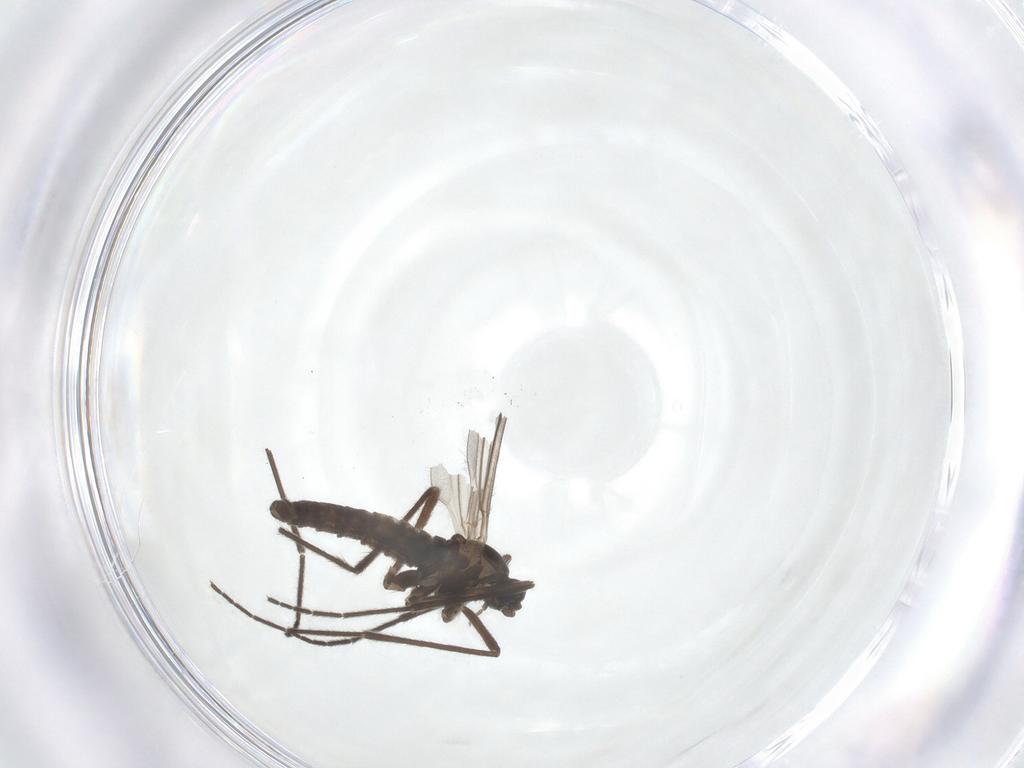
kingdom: Animalia
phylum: Arthropoda
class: Insecta
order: Diptera
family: Cecidomyiidae
